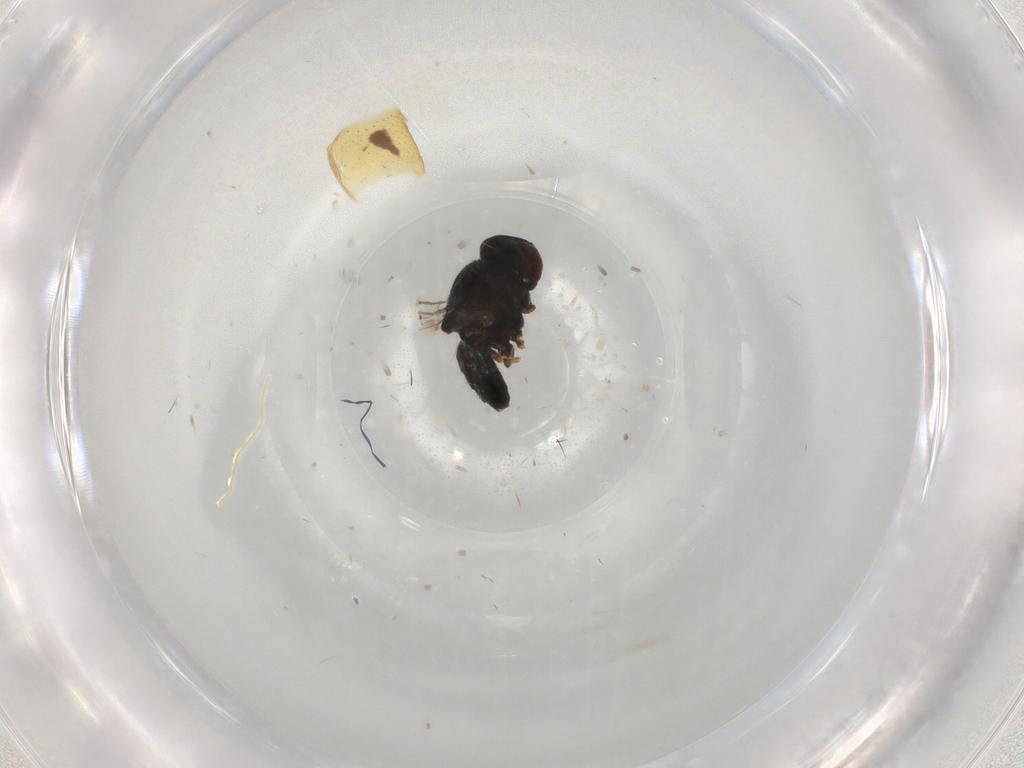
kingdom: Animalia
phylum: Arthropoda
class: Insecta
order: Diptera
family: Chloropidae
